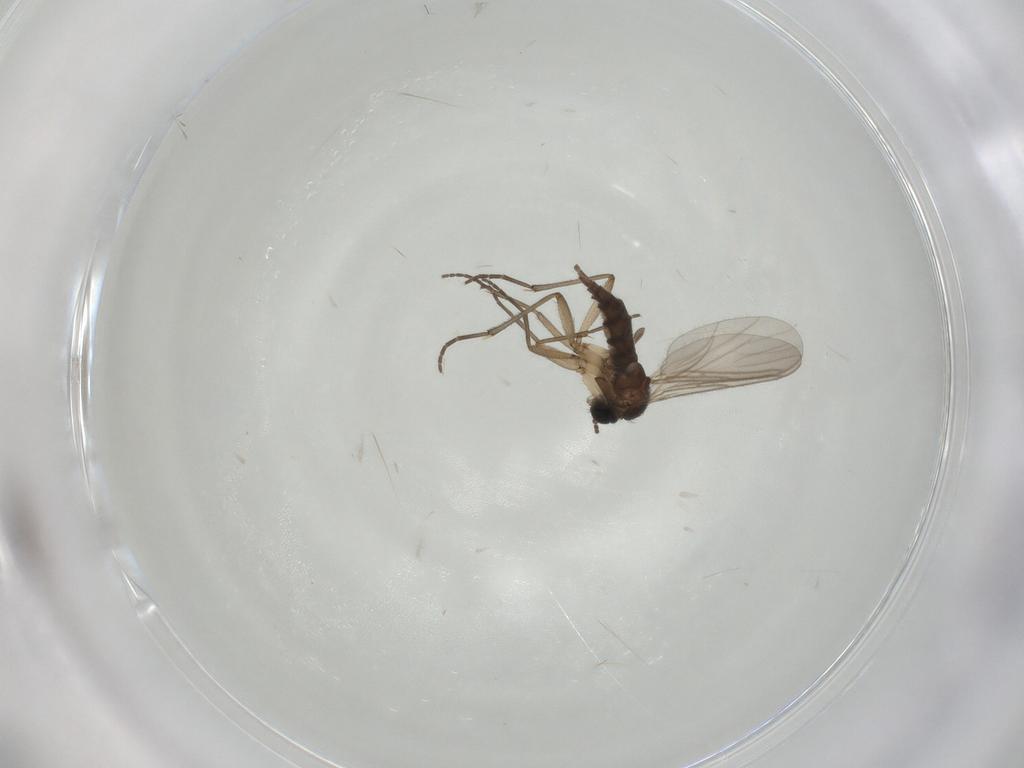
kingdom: Animalia
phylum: Arthropoda
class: Insecta
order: Diptera
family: Sciaridae
